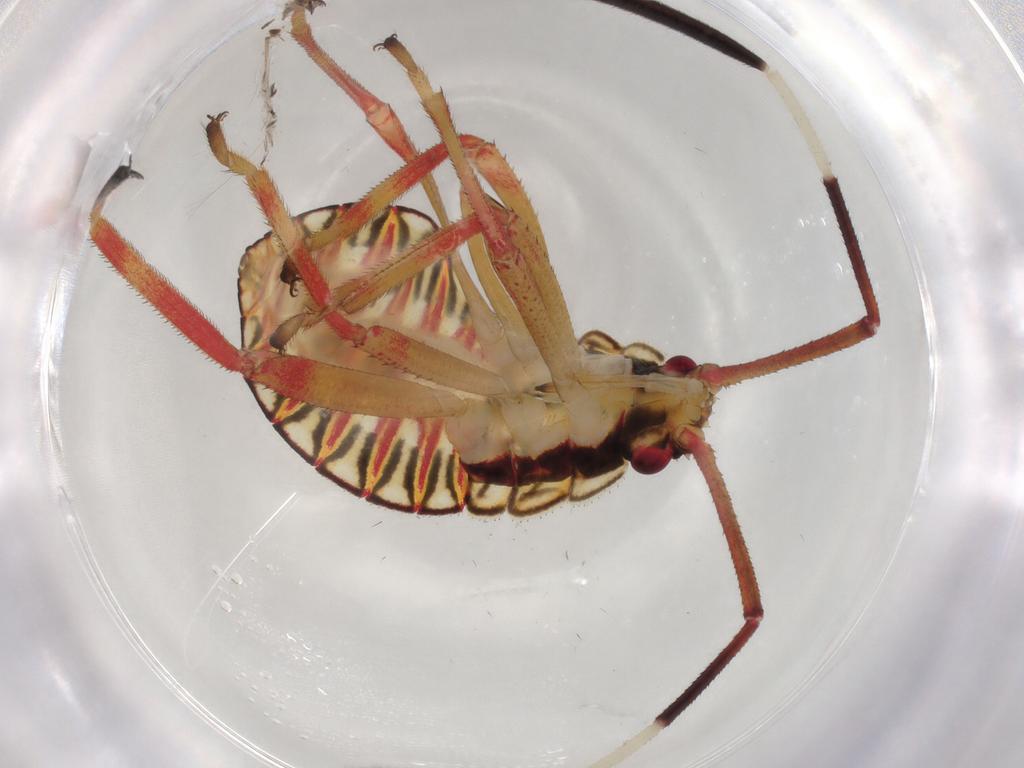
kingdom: Animalia
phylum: Arthropoda
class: Insecta
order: Hemiptera
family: Coreidae
